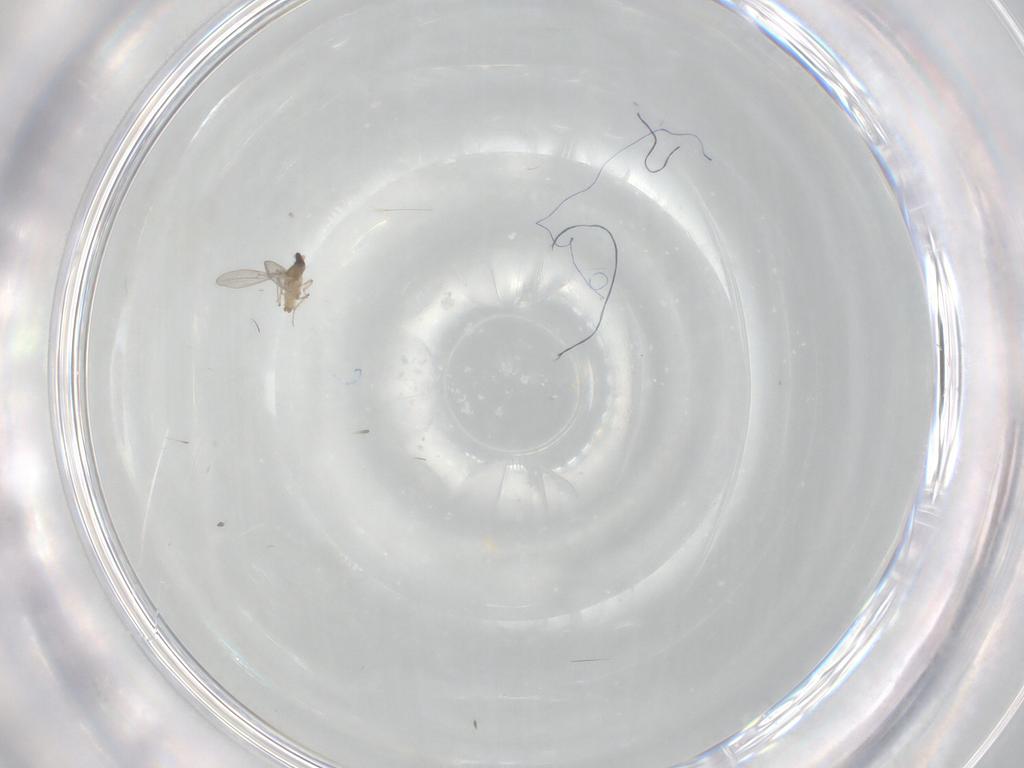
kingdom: Animalia
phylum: Arthropoda
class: Insecta
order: Diptera
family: Cecidomyiidae
